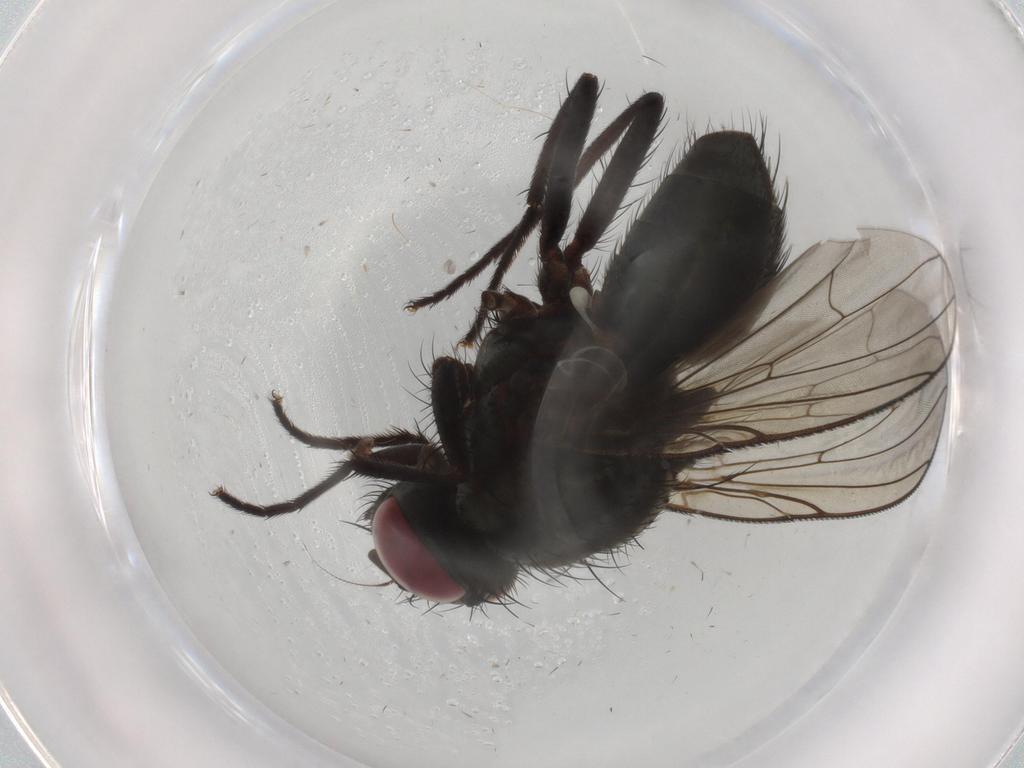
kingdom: Animalia
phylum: Arthropoda
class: Insecta
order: Diptera
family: Muscidae
